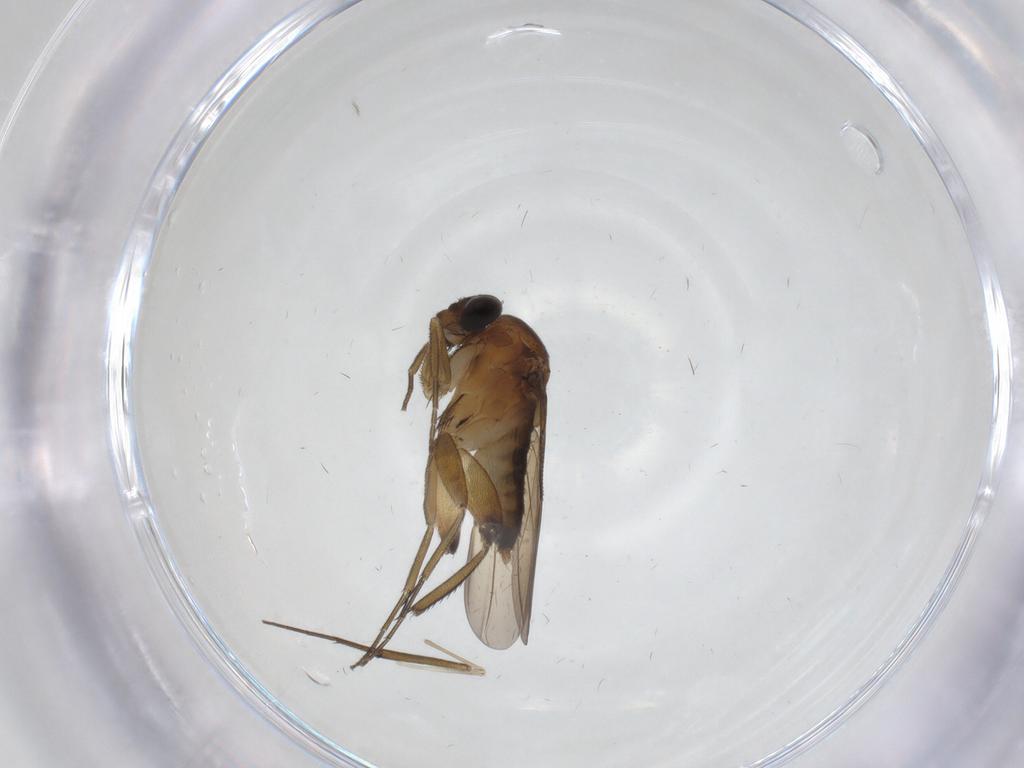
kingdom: Animalia
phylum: Arthropoda
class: Insecta
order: Diptera
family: Phoridae
